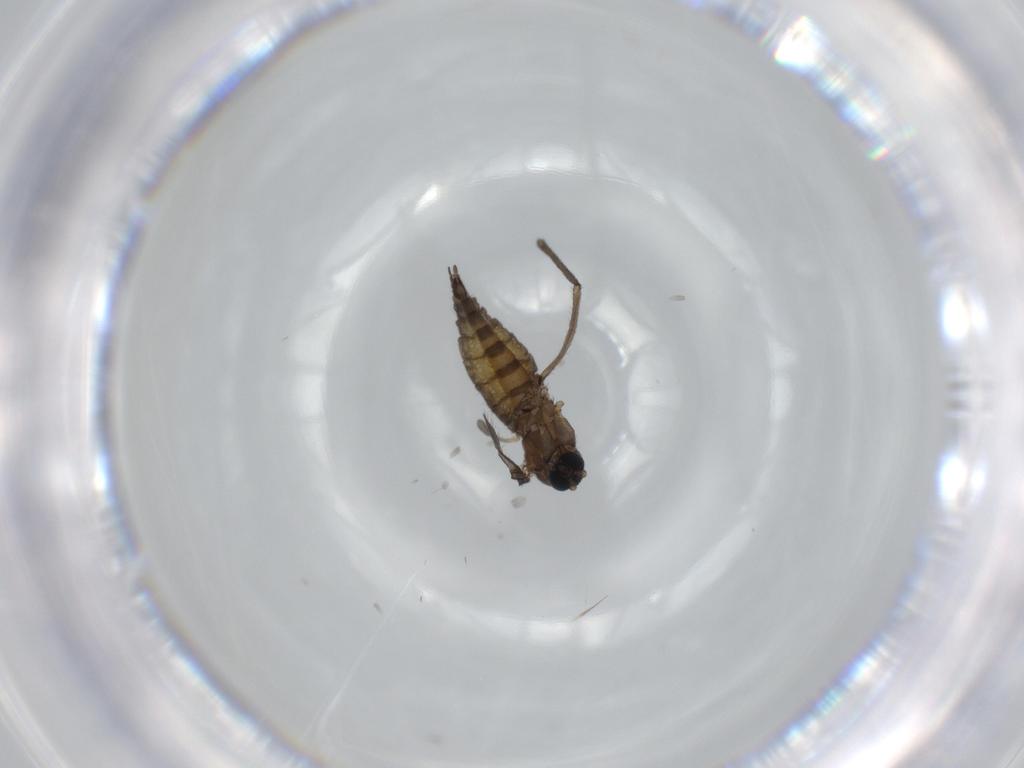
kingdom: Animalia
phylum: Arthropoda
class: Insecta
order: Diptera
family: Sciaridae
